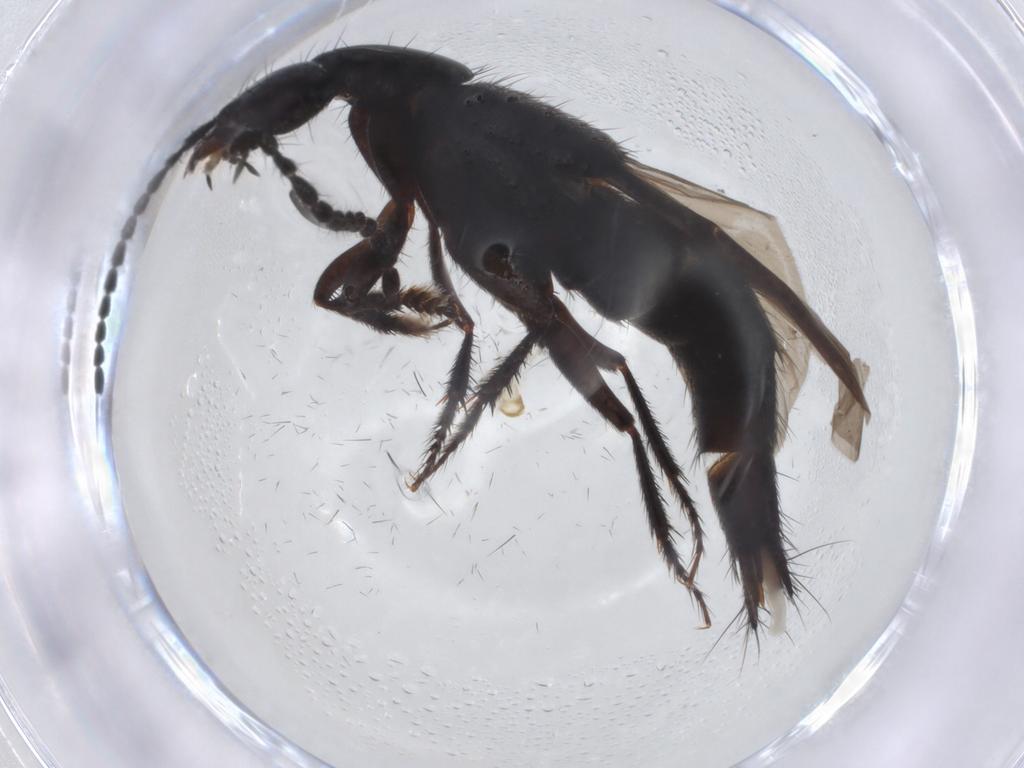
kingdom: Animalia
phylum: Arthropoda
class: Insecta
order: Coleoptera
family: Staphylinidae
